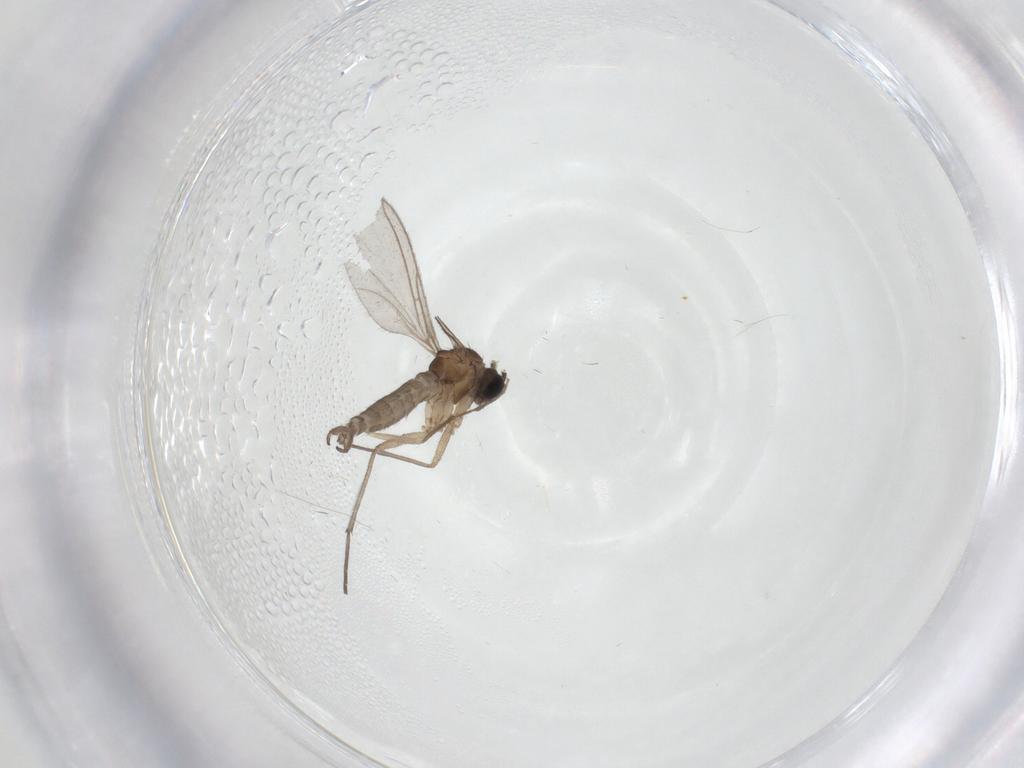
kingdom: Animalia
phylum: Arthropoda
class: Insecta
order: Diptera
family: Sciaridae
